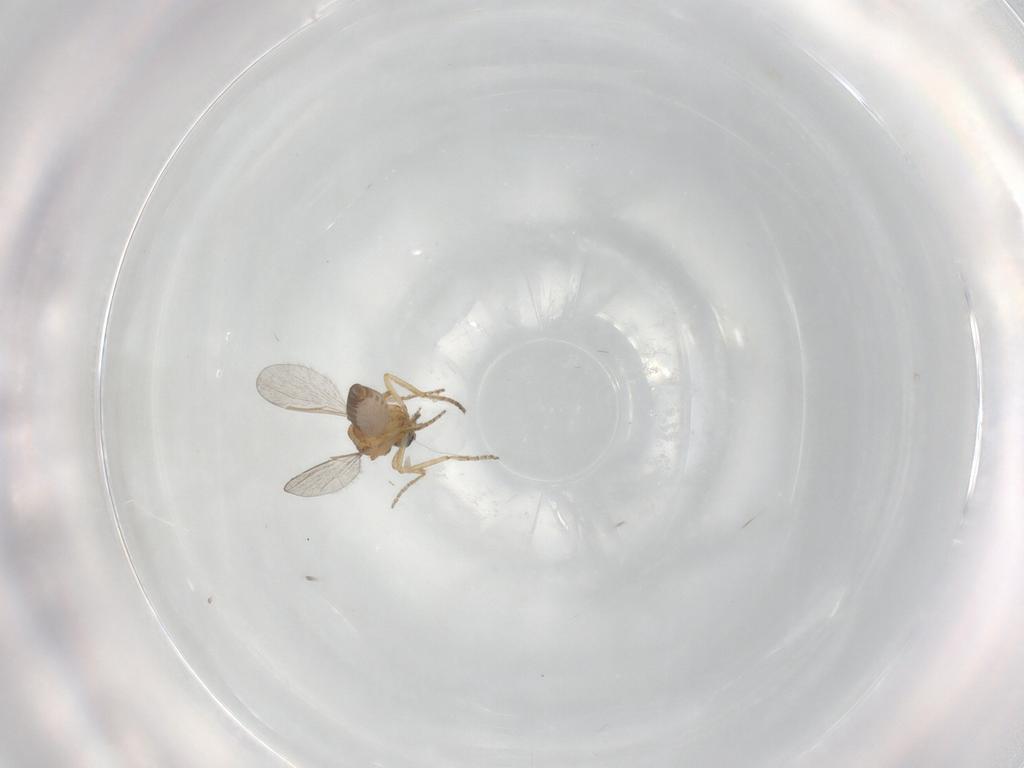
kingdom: Animalia
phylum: Arthropoda
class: Insecta
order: Diptera
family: Ceratopogonidae
